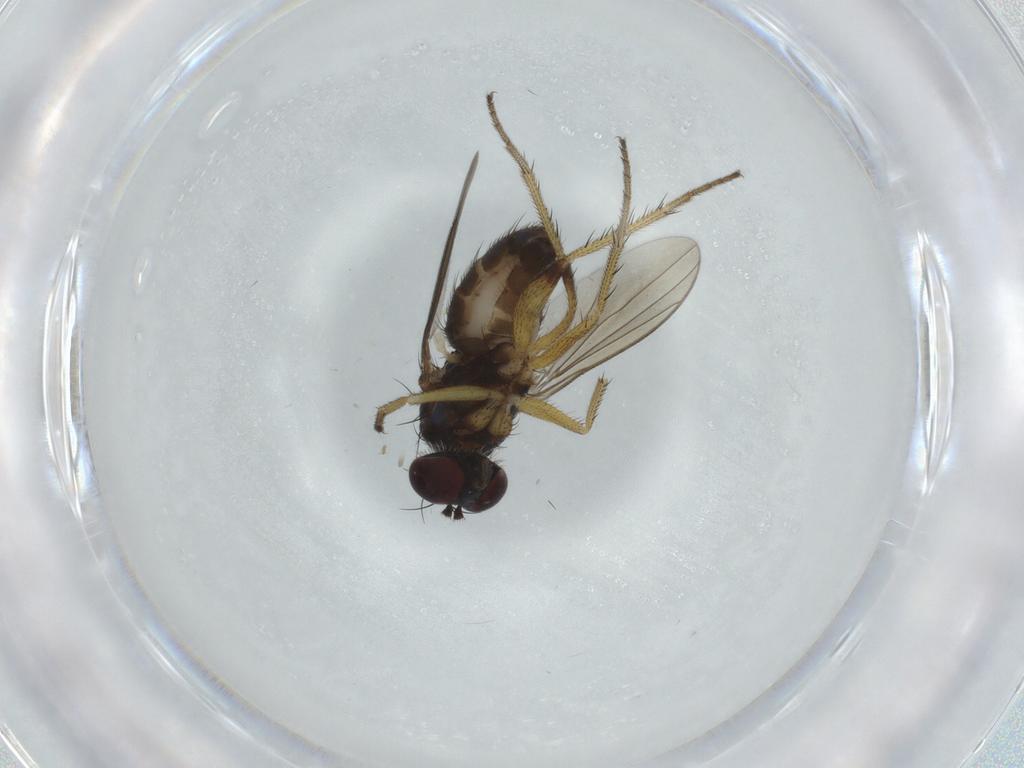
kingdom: Animalia
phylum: Arthropoda
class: Insecta
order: Diptera
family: Dolichopodidae
